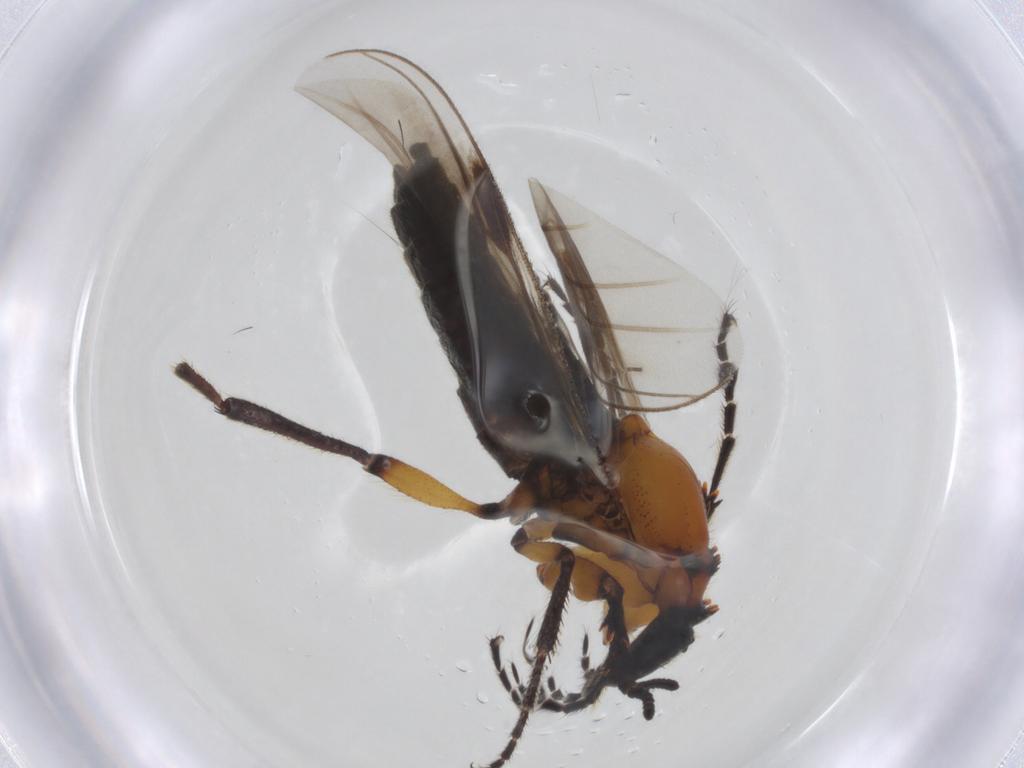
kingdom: Animalia
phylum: Arthropoda
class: Insecta
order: Diptera
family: Bibionidae
